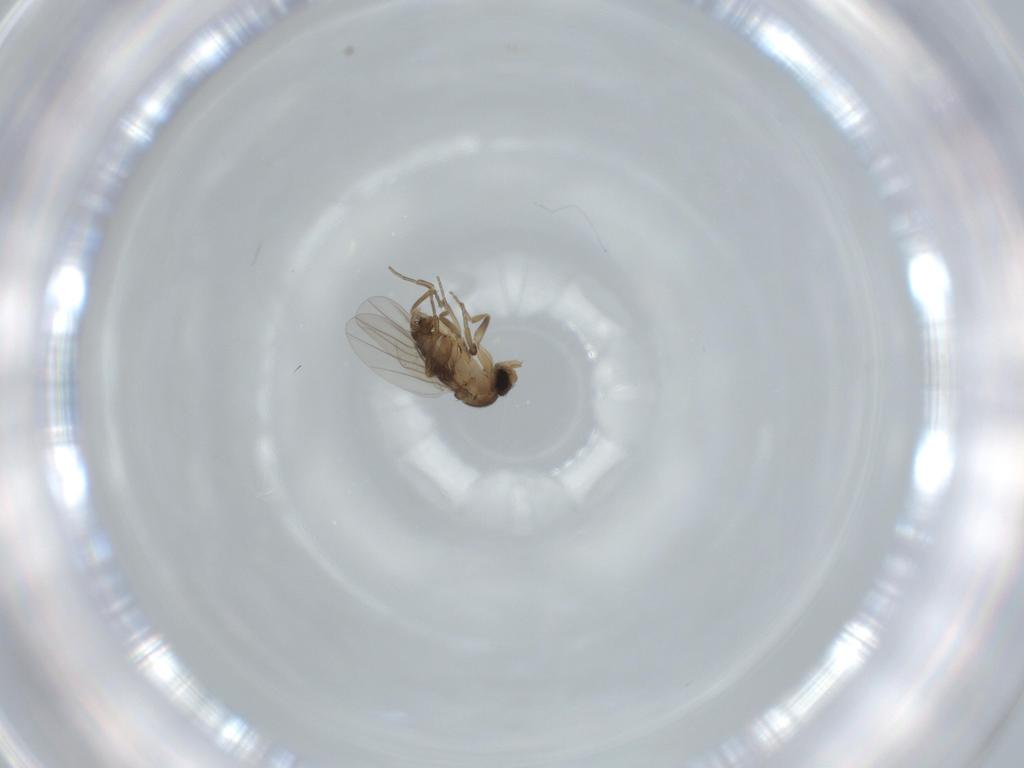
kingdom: Animalia
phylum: Arthropoda
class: Insecta
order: Diptera
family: Phoridae
